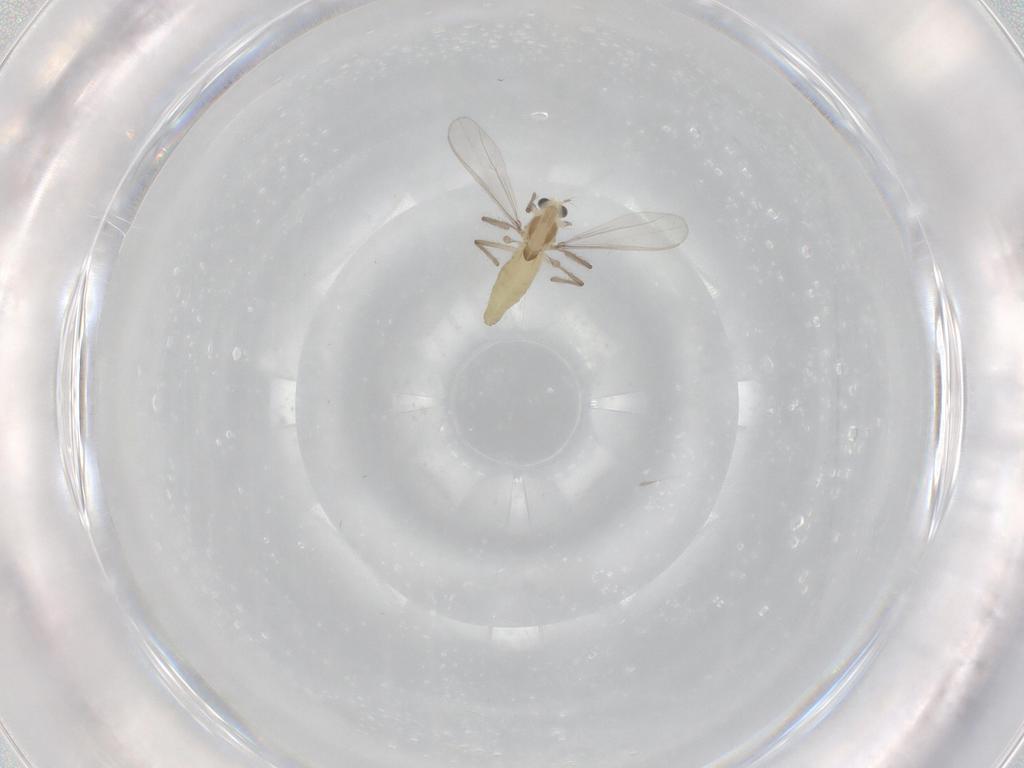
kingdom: Animalia
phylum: Arthropoda
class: Insecta
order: Diptera
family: Chironomidae
